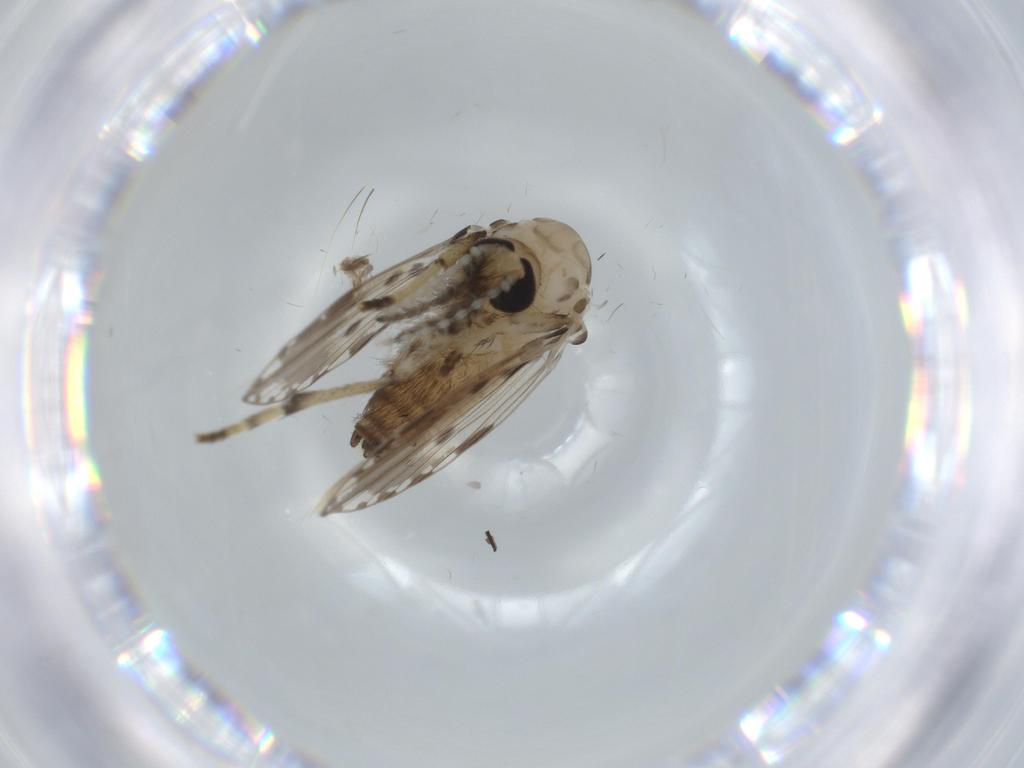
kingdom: Animalia
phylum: Arthropoda
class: Insecta
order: Diptera
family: Sciaridae
